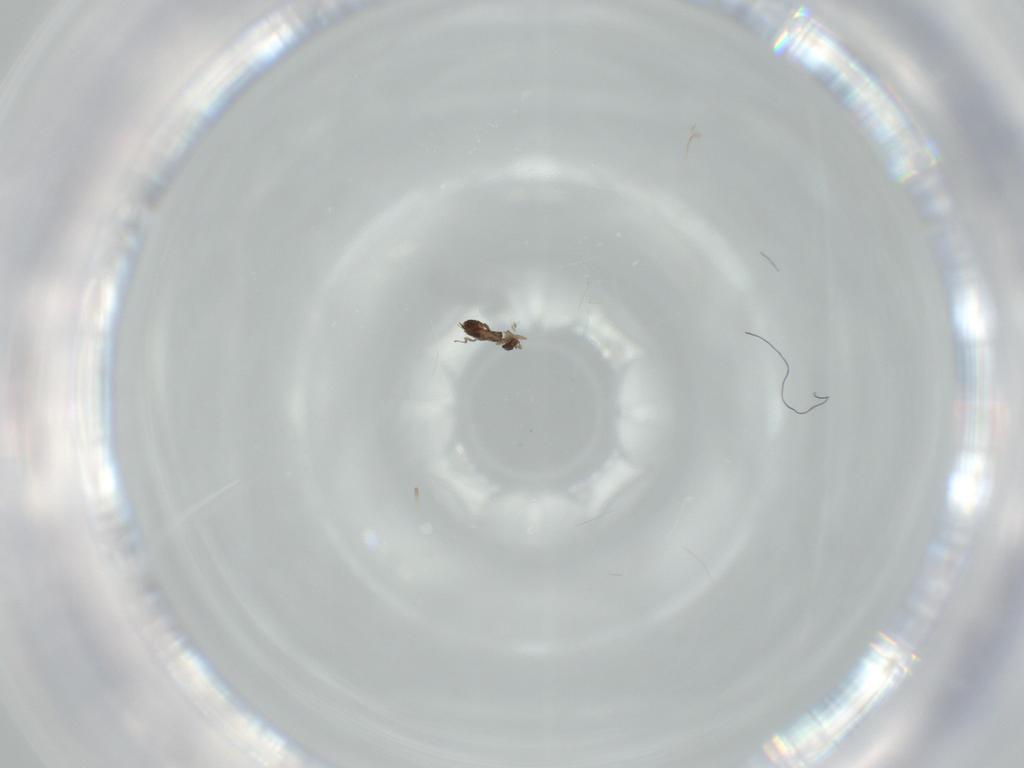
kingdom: Animalia
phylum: Arthropoda
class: Insecta
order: Hymenoptera
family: Mymaridae
